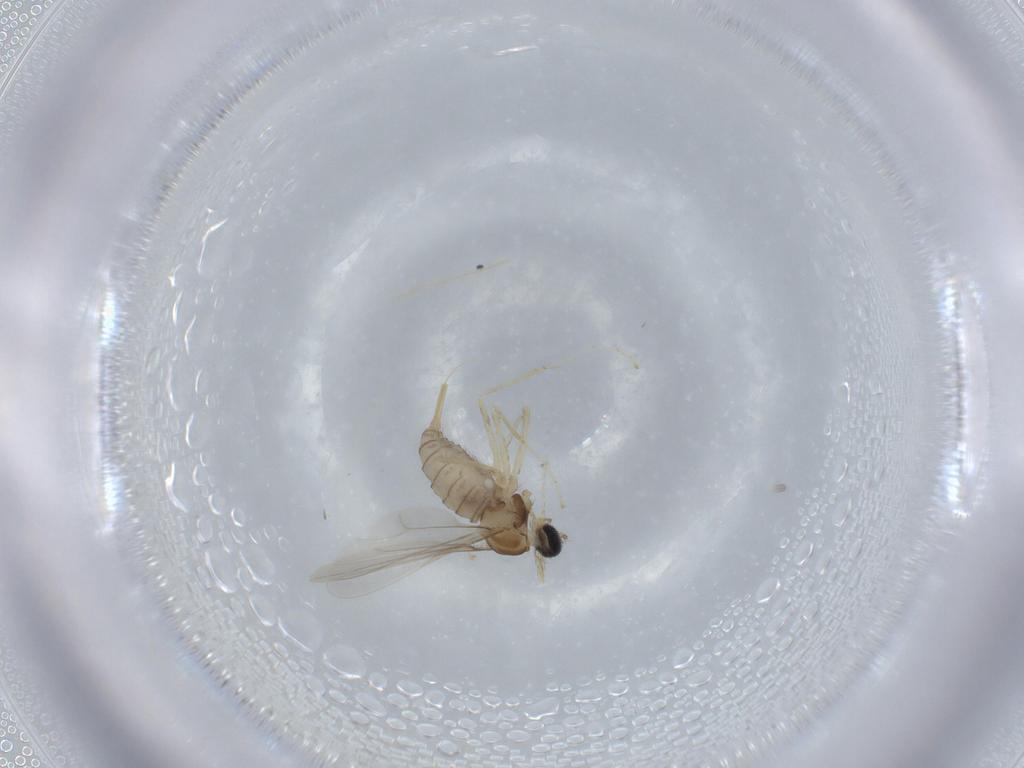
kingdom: Animalia
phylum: Arthropoda
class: Insecta
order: Diptera
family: Cecidomyiidae
